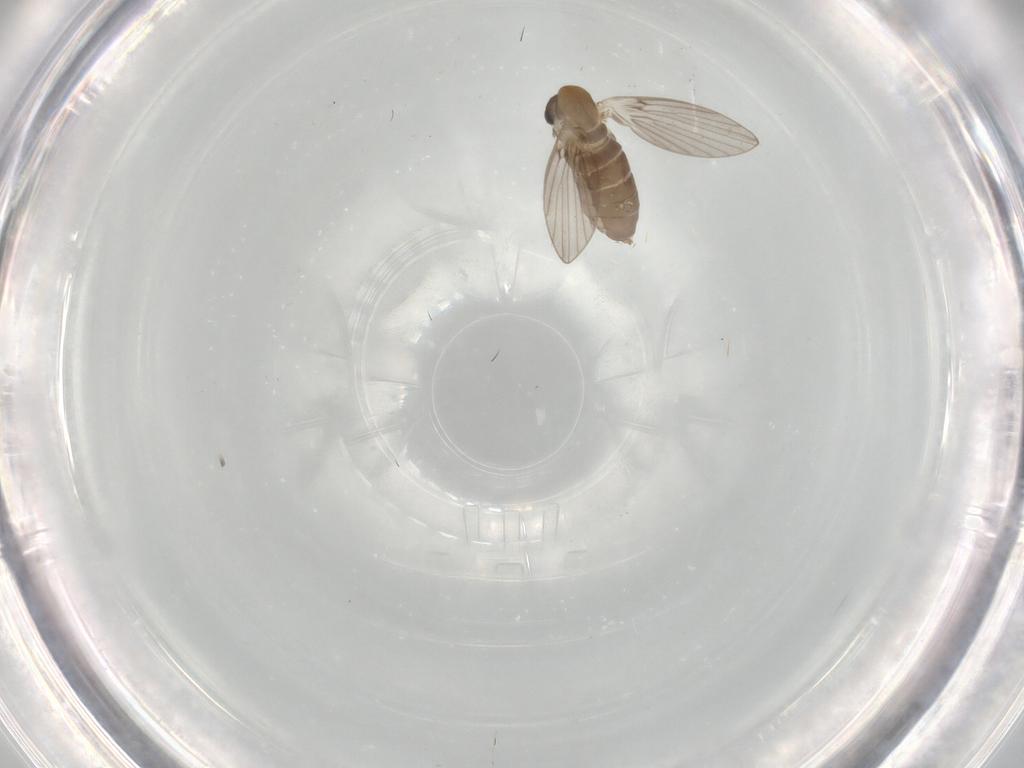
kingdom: Animalia
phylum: Arthropoda
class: Insecta
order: Diptera
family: Psychodidae
